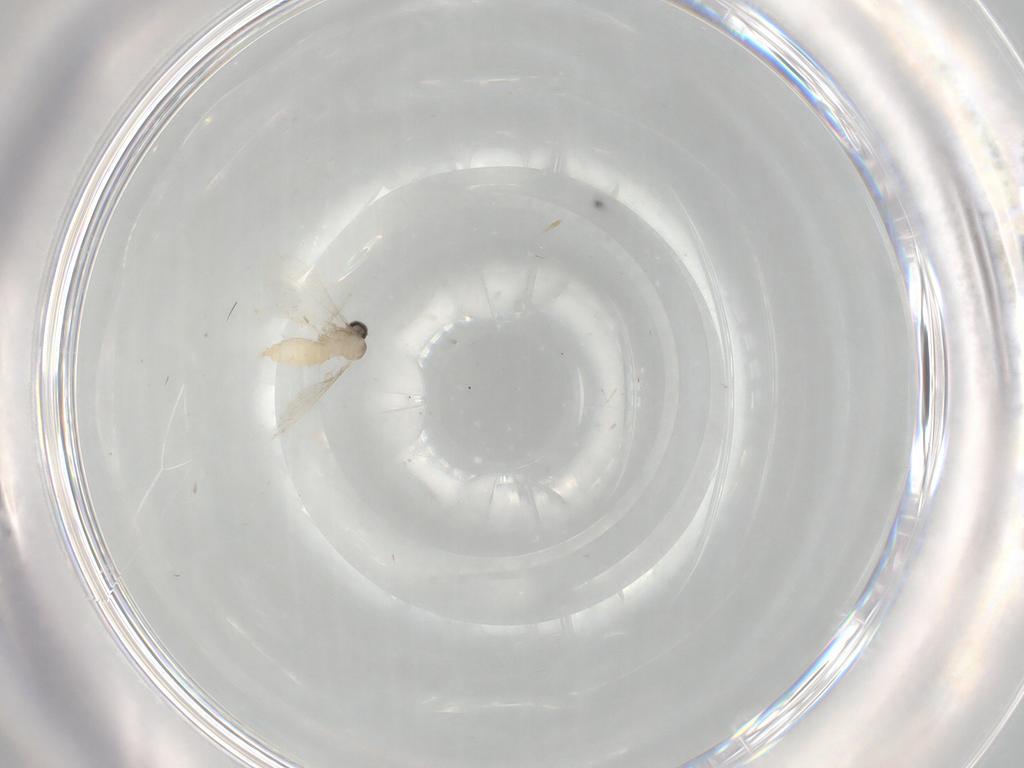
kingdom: Animalia
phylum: Arthropoda
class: Insecta
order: Diptera
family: Cecidomyiidae
